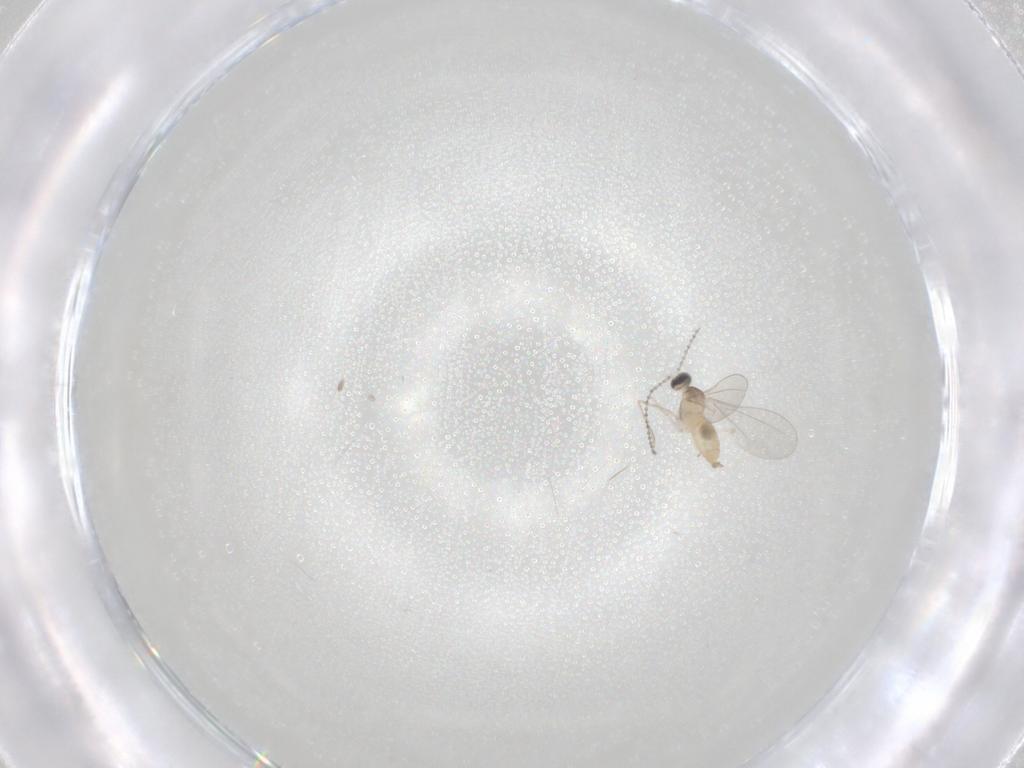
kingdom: Animalia
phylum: Arthropoda
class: Insecta
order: Diptera
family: Cecidomyiidae
